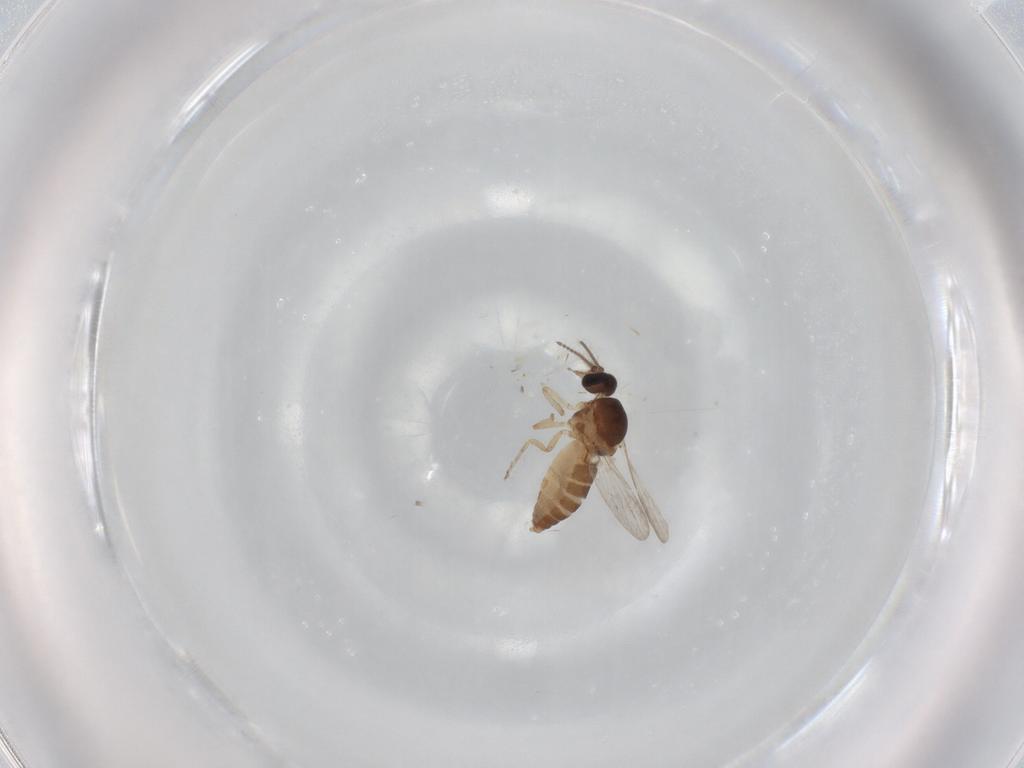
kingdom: Animalia
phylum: Arthropoda
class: Insecta
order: Diptera
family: Ceratopogonidae
